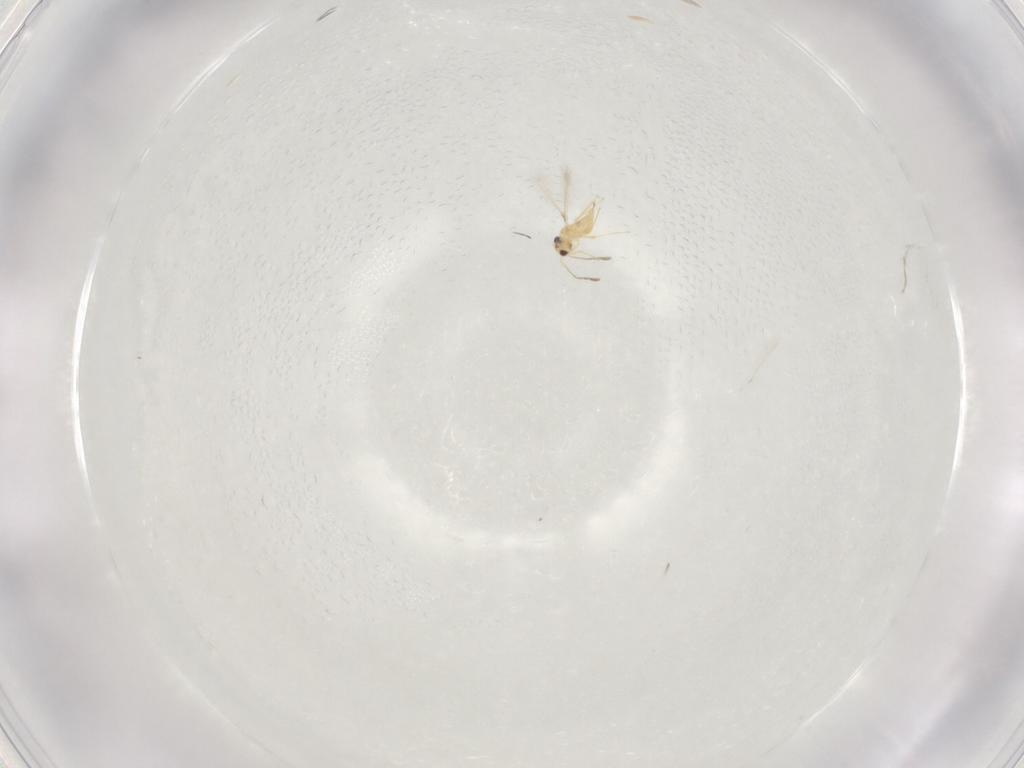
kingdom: Animalia
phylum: Arthropoda
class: Insecta
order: Hymenoptera
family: Mymaridae
